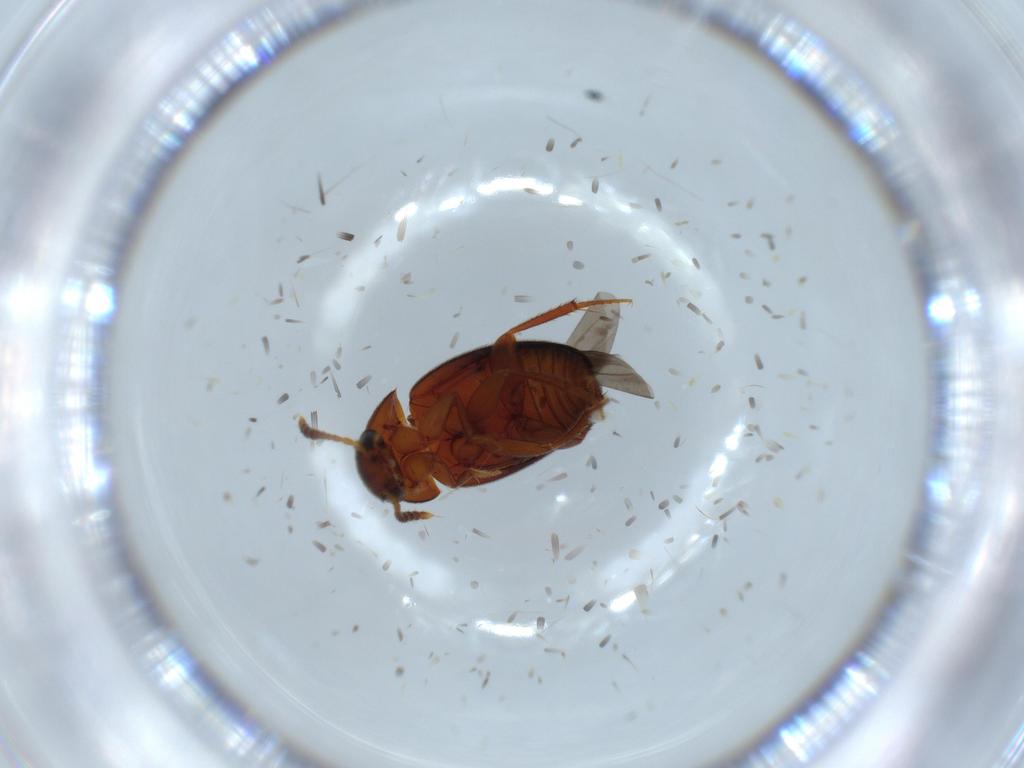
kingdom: Animalia
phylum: Arthropoda
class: Insecta
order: Coleoptera
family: Leiodidae
